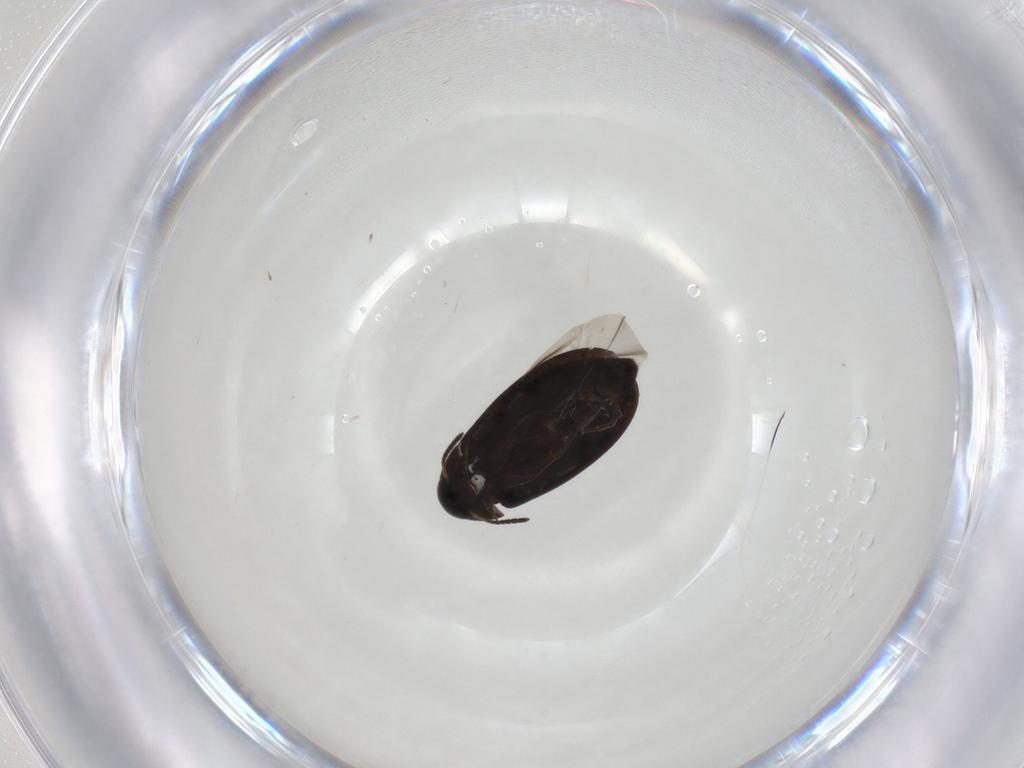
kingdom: Animalia
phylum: Arthropoda
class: Insecta
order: Coleoptera
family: Scraptiidae
